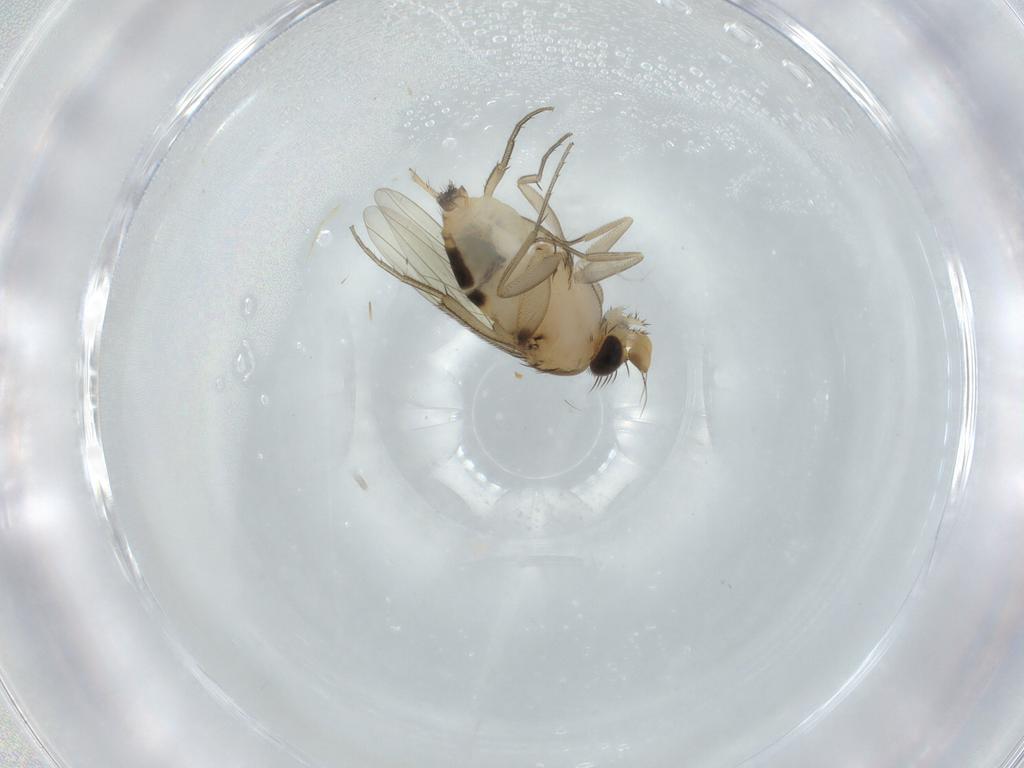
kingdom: Animalia
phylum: Arthropoda
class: Insecta
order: Diptera
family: Phoridae
